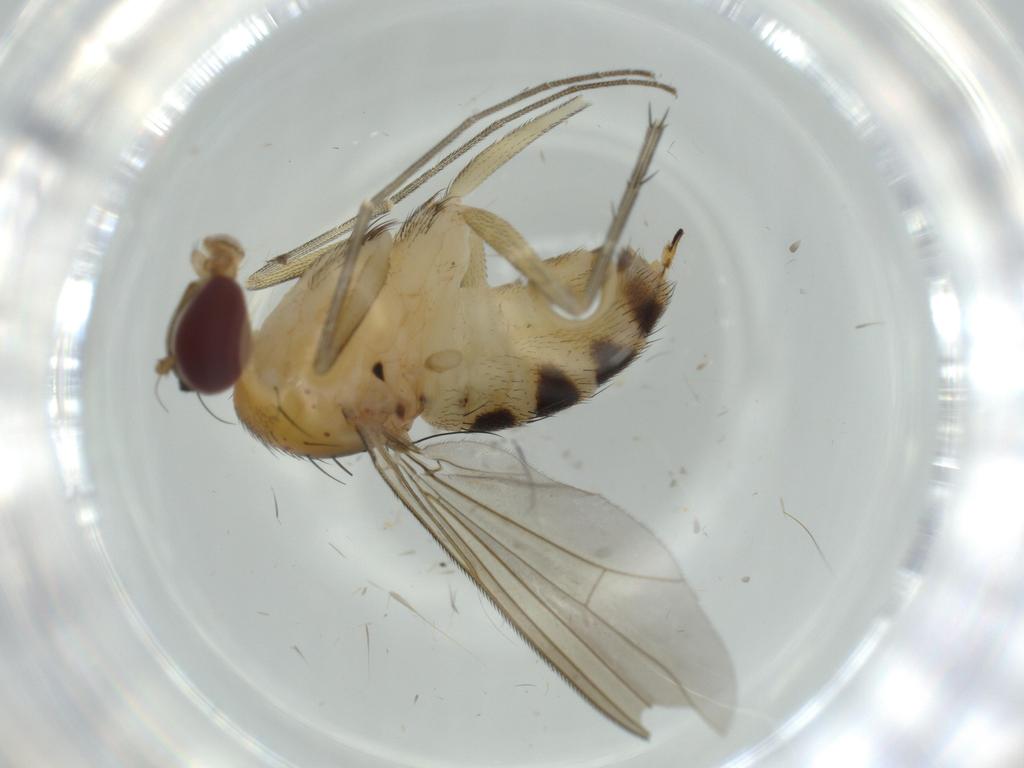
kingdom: Animalia
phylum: Arthropoda
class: Insecta
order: Diptera
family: Dolichopodidae
